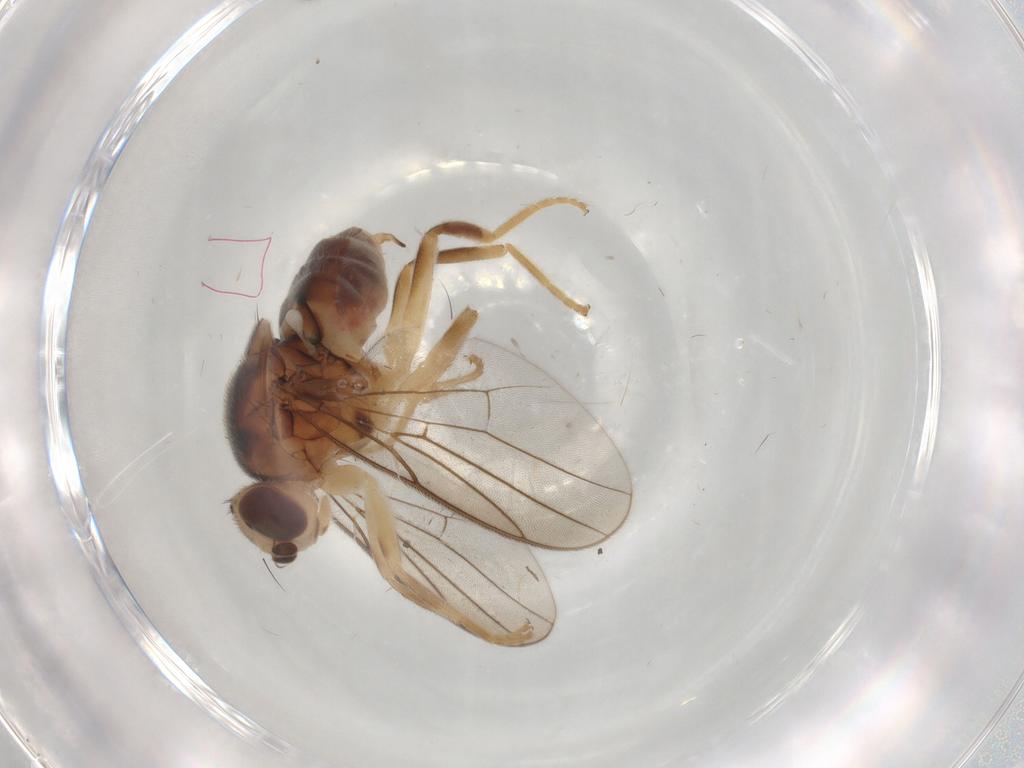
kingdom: Animalia
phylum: Arthropoda
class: Insecta
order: Diptera
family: Chloropidae
